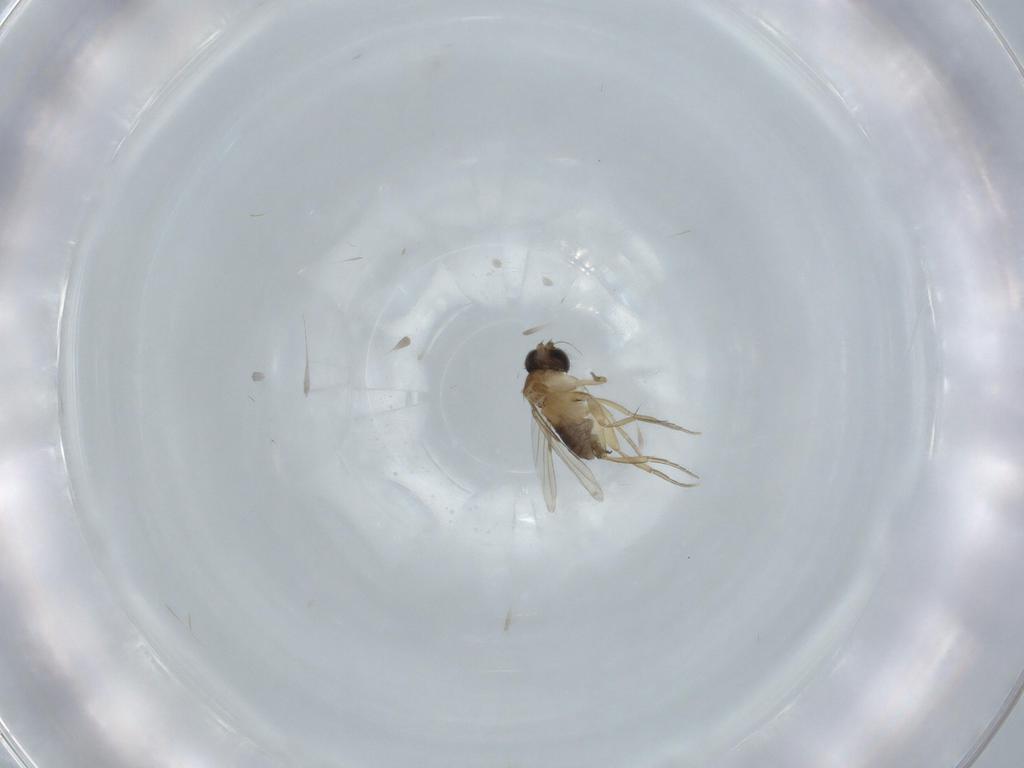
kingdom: Animalia
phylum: Arthropoda
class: Insecta
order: Diptera
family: Phoridae
